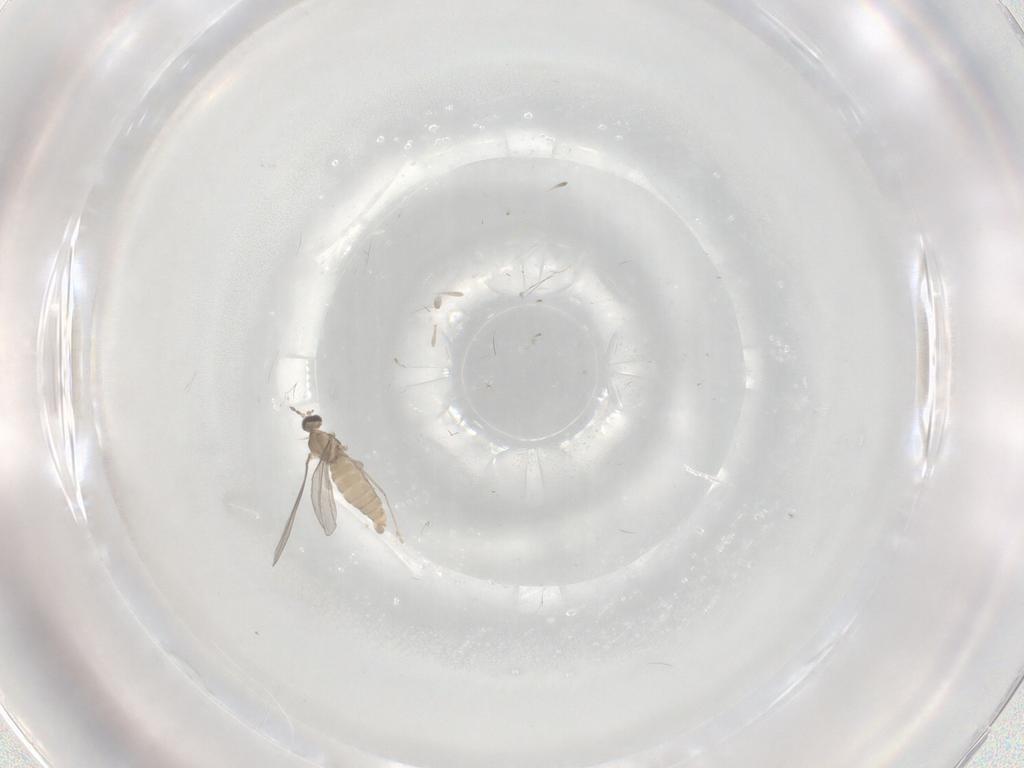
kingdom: Animalia
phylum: Arthropoda
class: Insecta
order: Diptera
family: Cecidomyiidae
